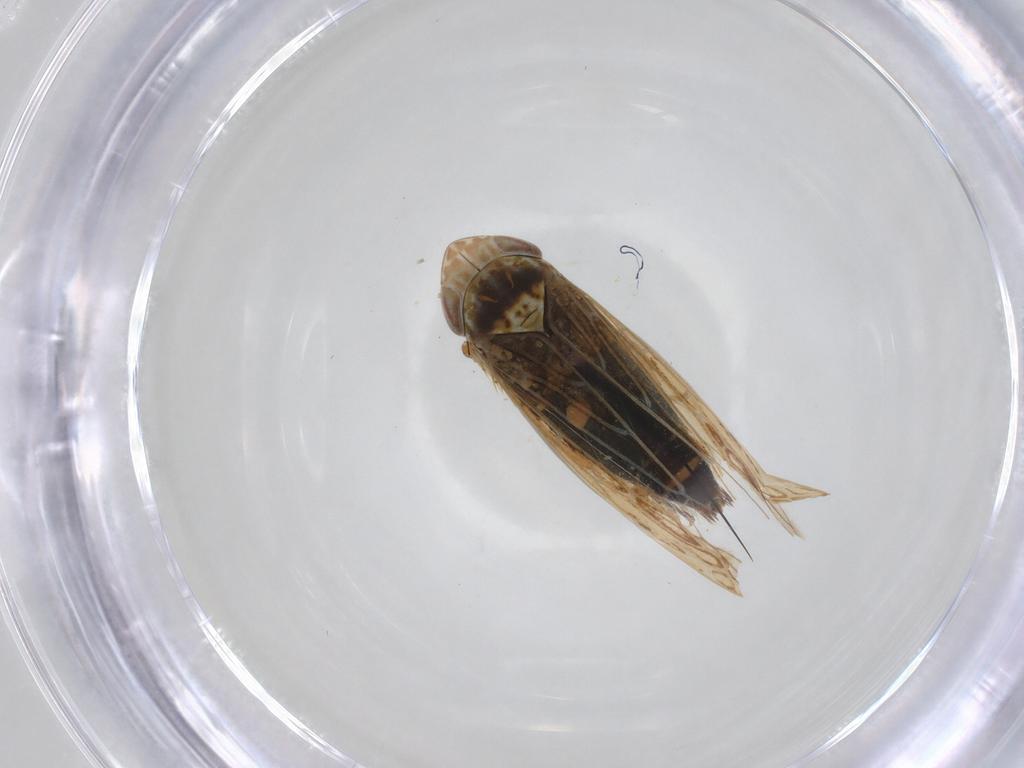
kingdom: Animalia
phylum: Arthropoda
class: Insecta
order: Hemiptera
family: Cicadellidae
